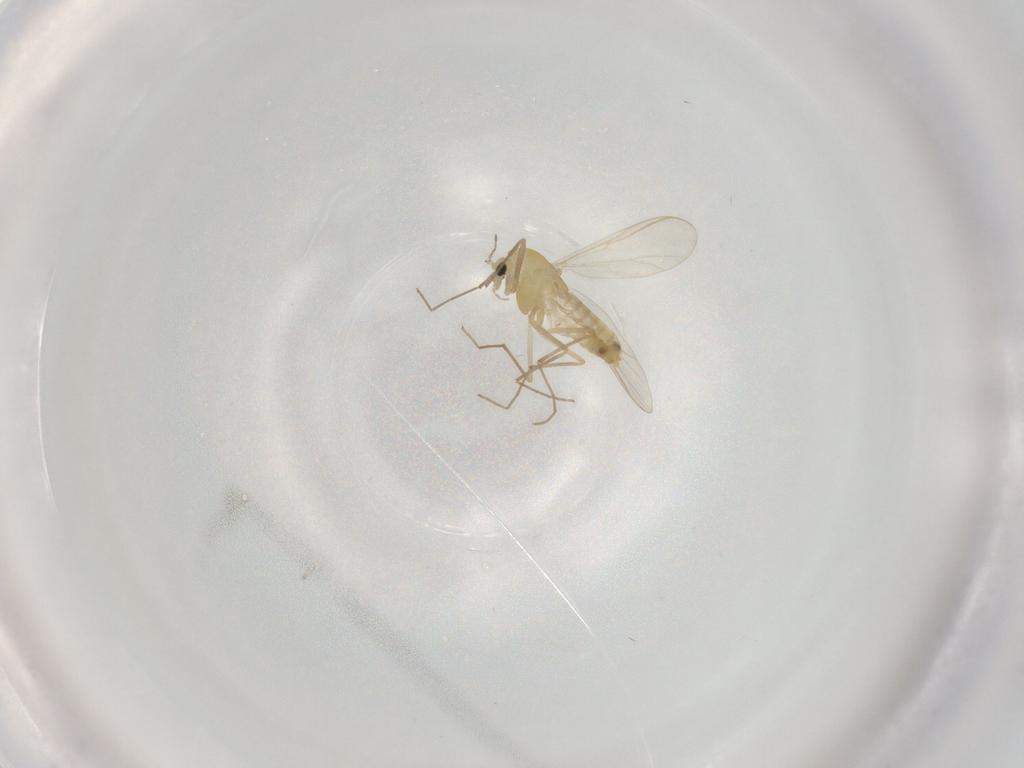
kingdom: Animalia
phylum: Arthropoda
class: Insecta
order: Diptera
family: Chironomidae
